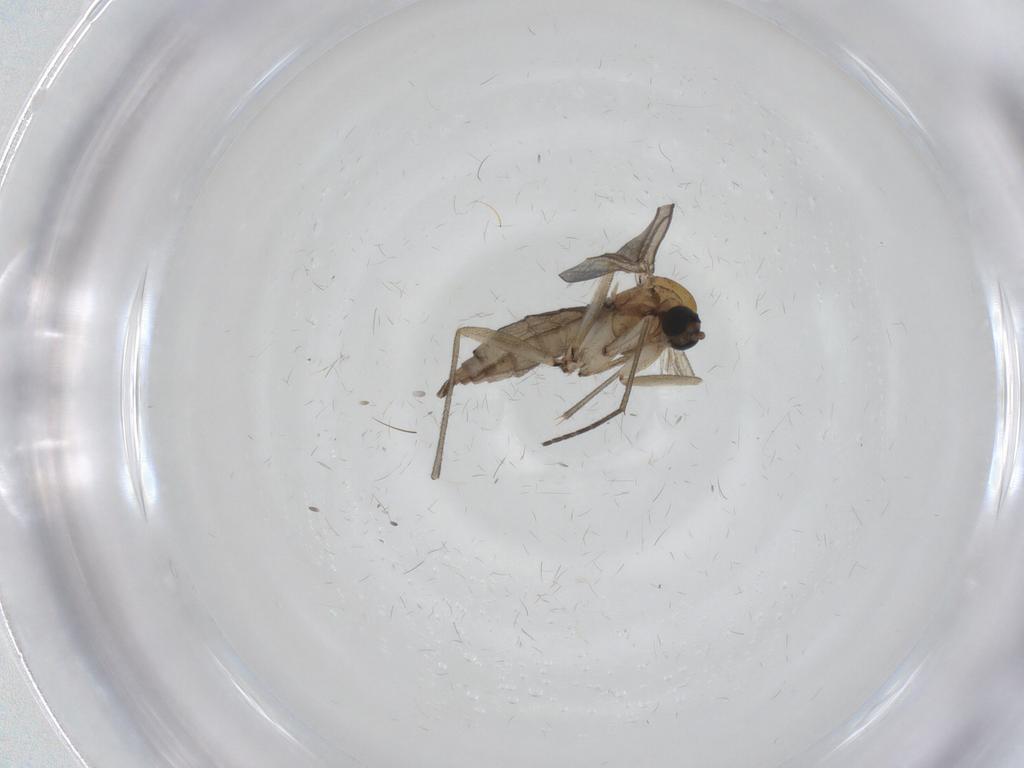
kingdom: Animalia
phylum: Arthropoda
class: Insecta
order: Diptera
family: Sciaridae
